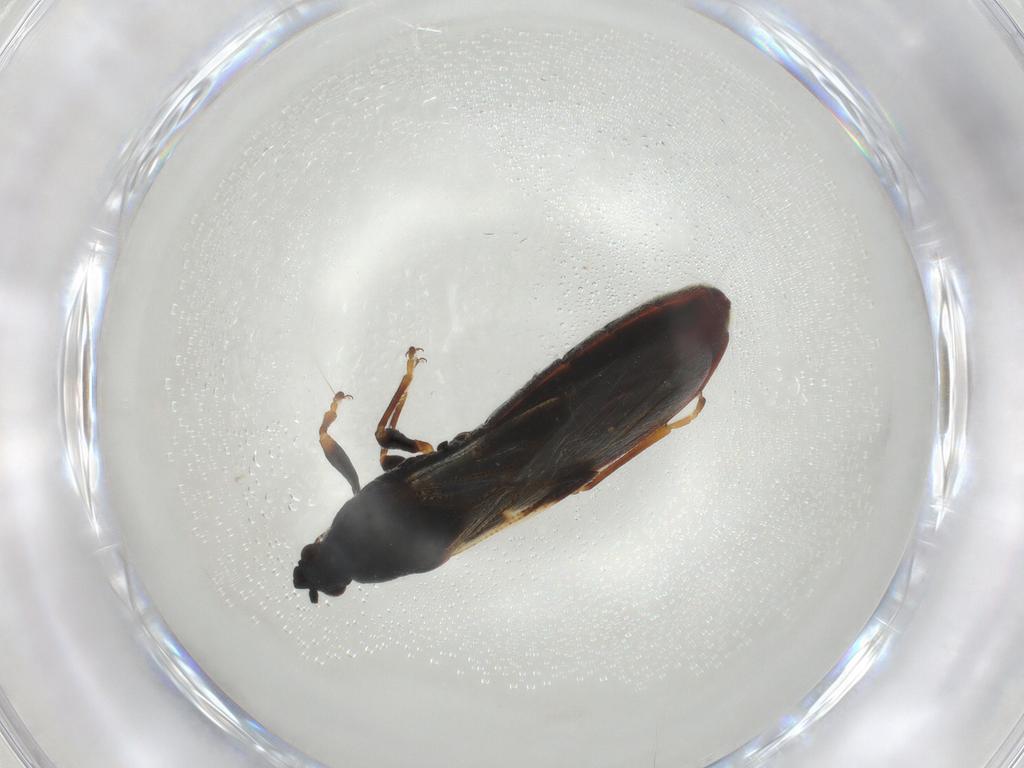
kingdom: Animalia
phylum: Arthropoda
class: Insecta
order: Hemiptera
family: Blissidae
